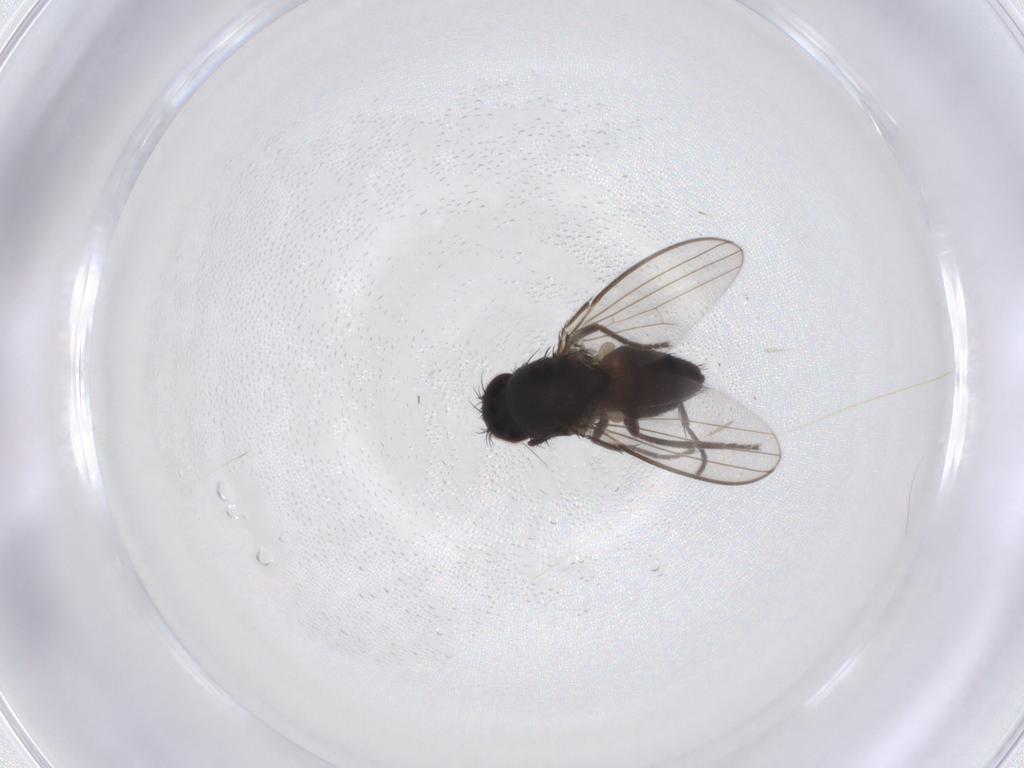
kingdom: Animalia
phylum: Arthropoda
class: Insecta
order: Diptera
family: Milichiidae
